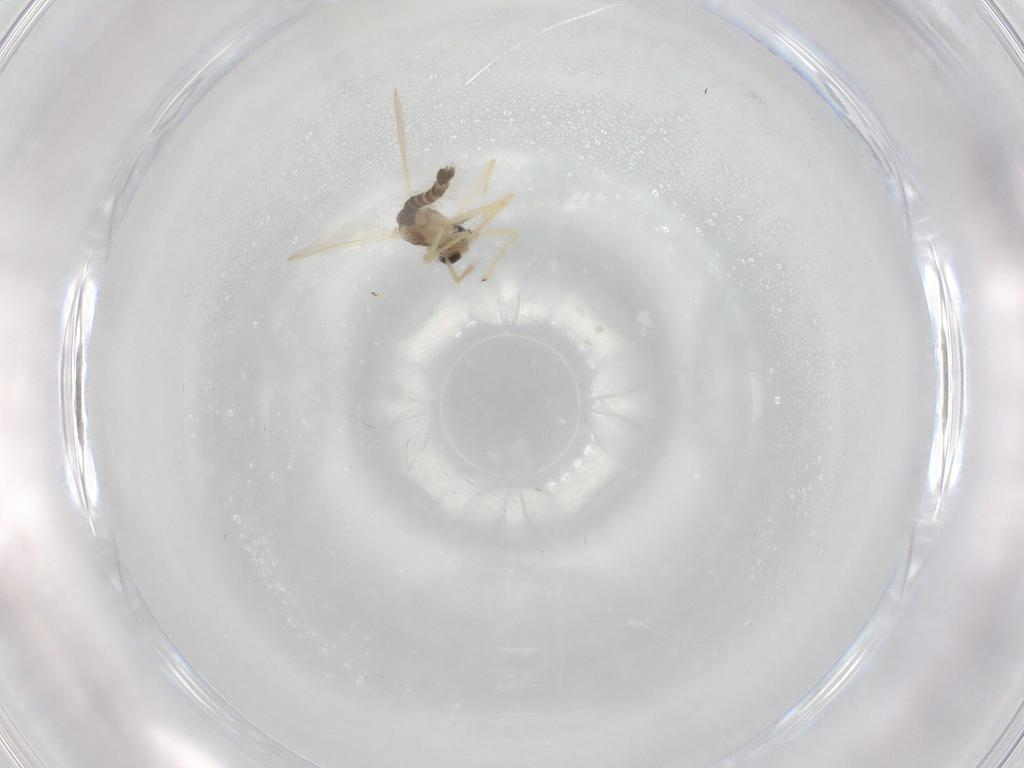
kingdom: Animalia
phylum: Arthropoda
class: Insecta
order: Diptera
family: Chironomidae
